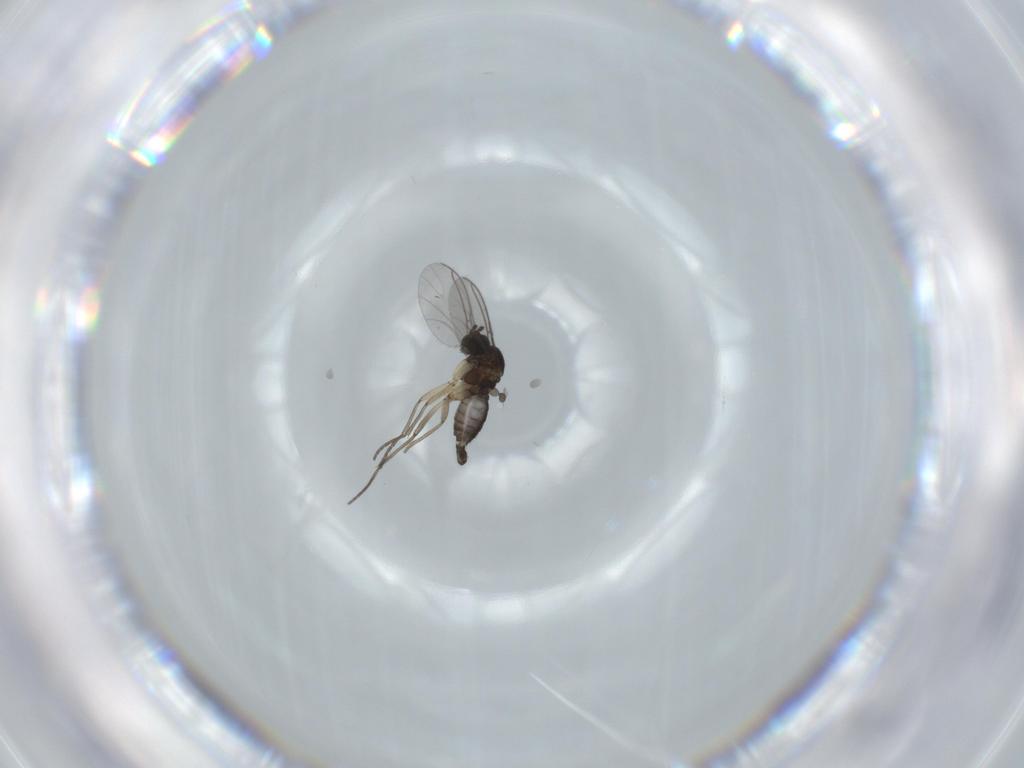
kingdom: Animalia
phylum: Arthropoda
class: Insecta
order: Diptera
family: Sciaridae
